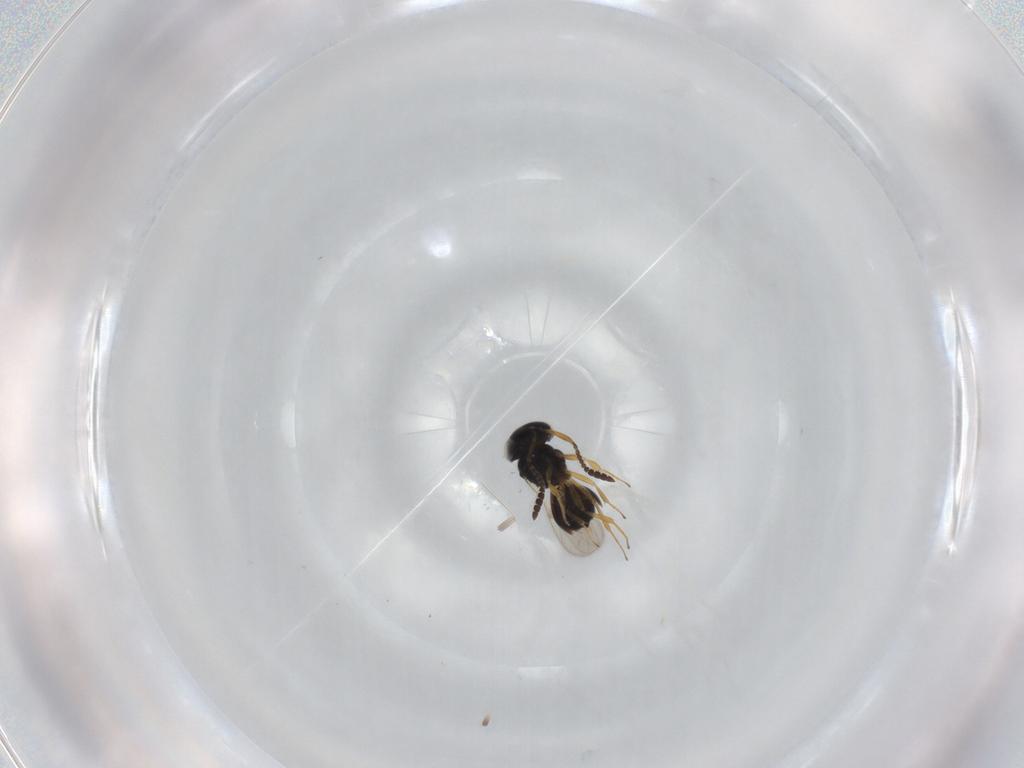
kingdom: Animalia
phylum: Arthropoda
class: Insecta
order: Hymenoptera
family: Scelionidae
